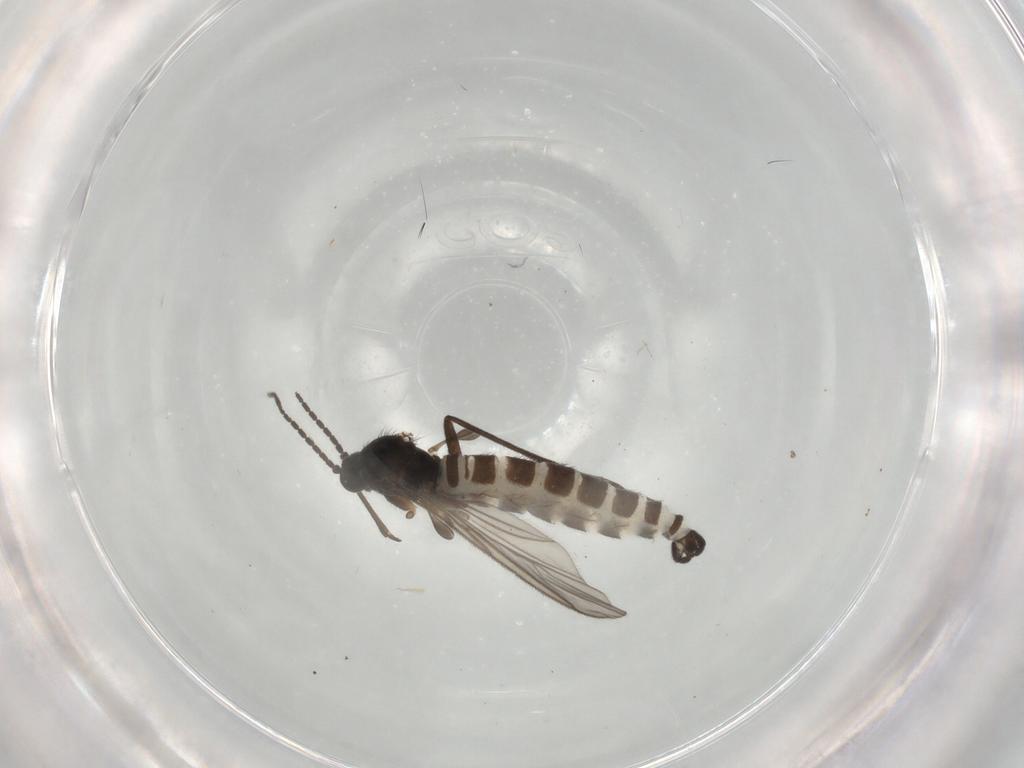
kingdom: Animalia
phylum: Arthropoda
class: Insecta
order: Diptera
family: Sciaridae
